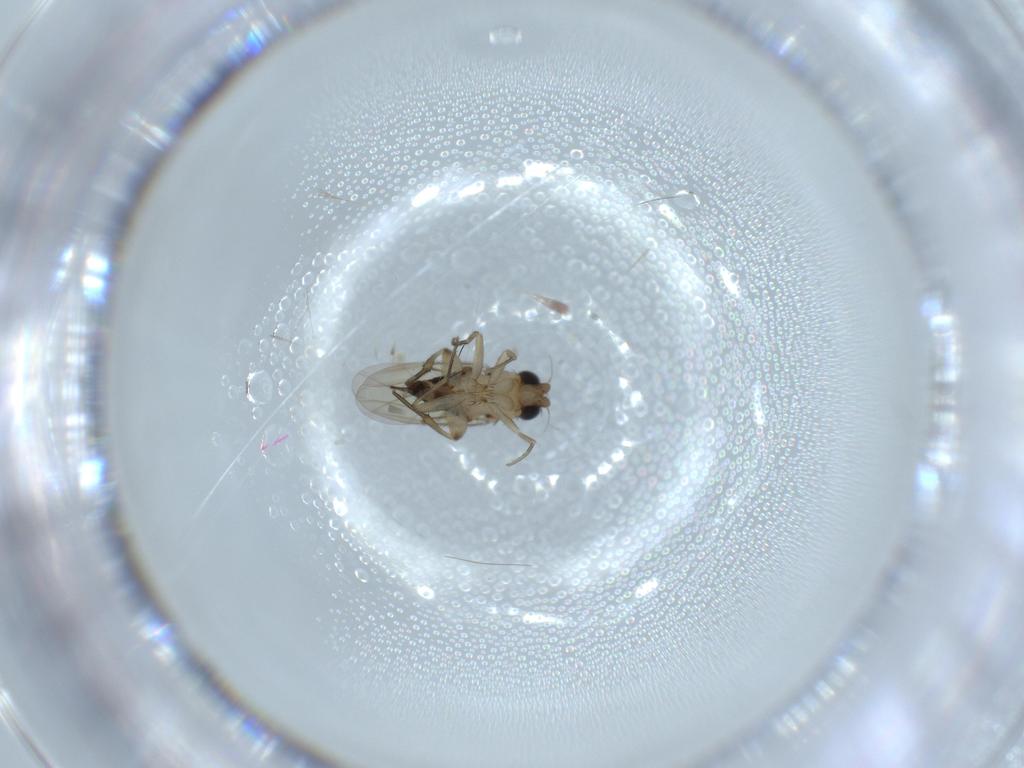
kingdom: Animalia
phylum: Arthropoda
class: Insecta
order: Diptera
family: Phoridae
